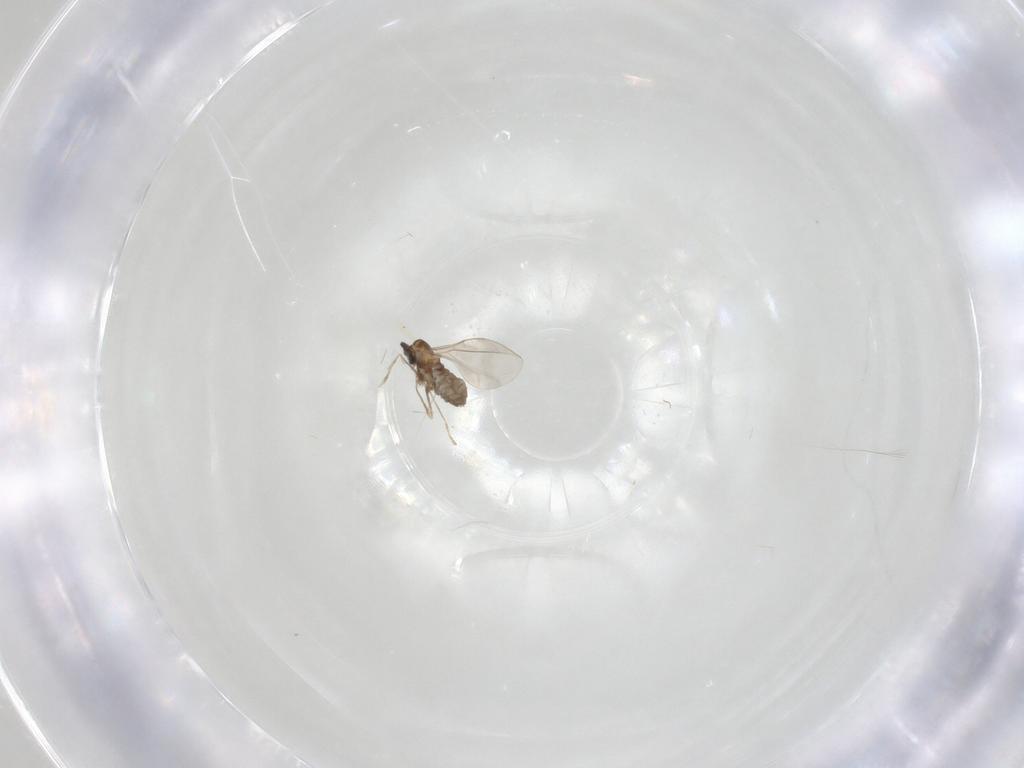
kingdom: Animalia
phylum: Arthropoda
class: Insecta
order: Diptera
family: Cecidomyiidae
